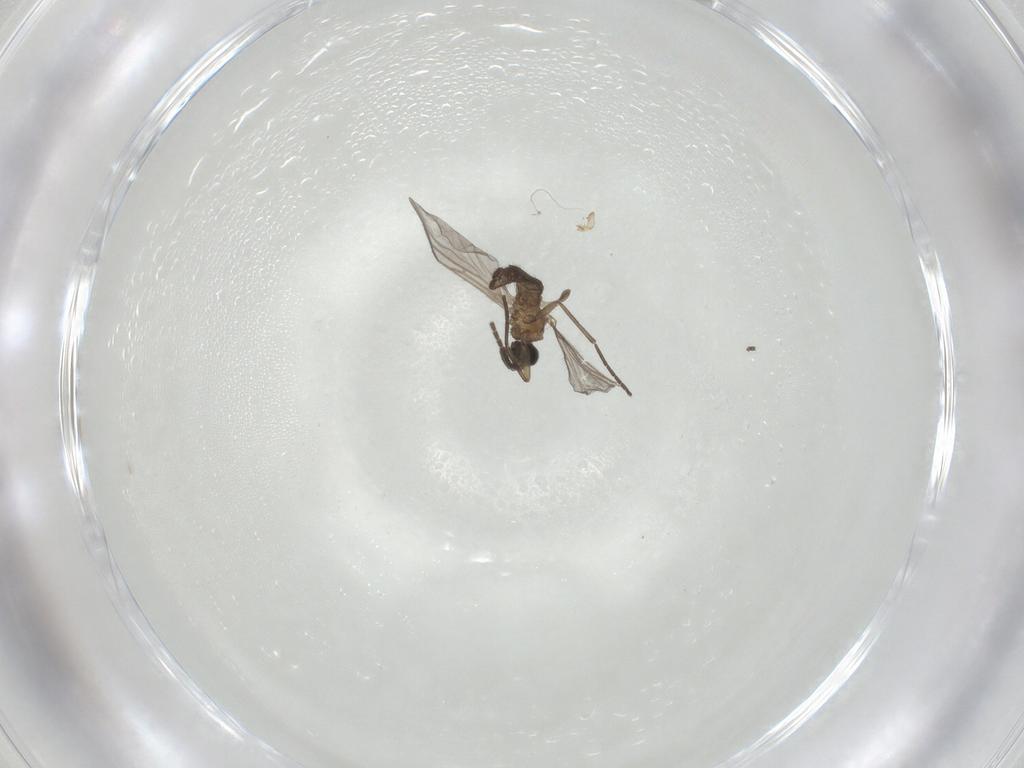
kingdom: Animalia
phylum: Arthropoda
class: Insecta
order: Diptera
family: Sciaridae
